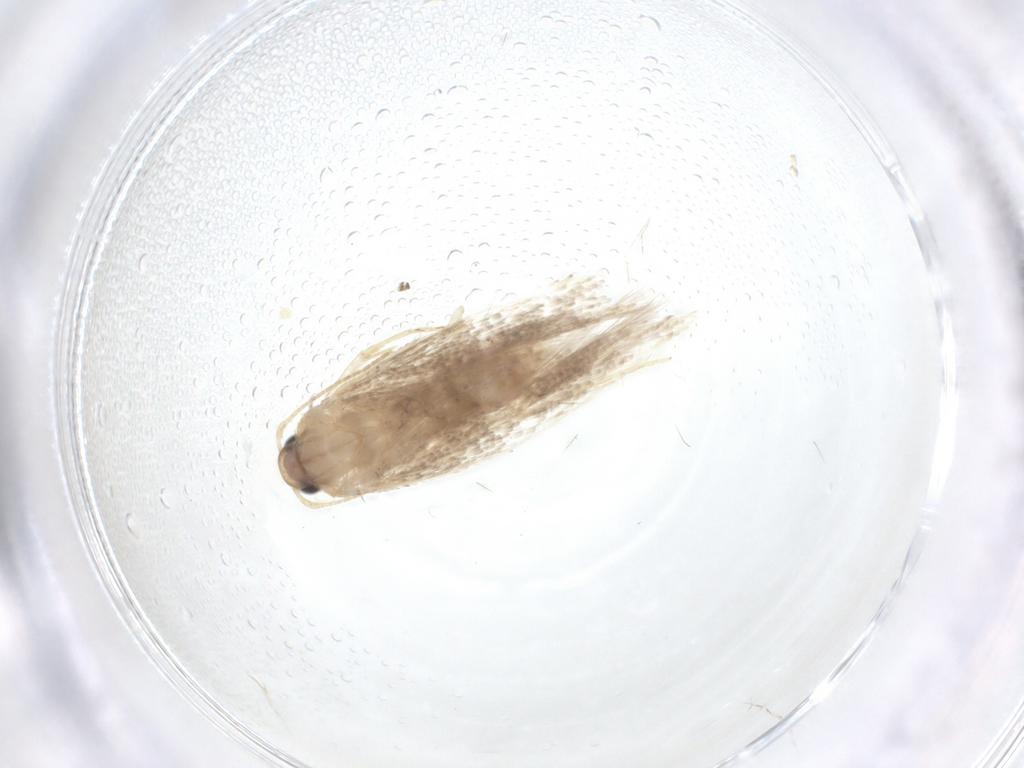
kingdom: Animalia
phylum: Arthropoda
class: Insecta
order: Lepidoptera
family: Elachistidae
